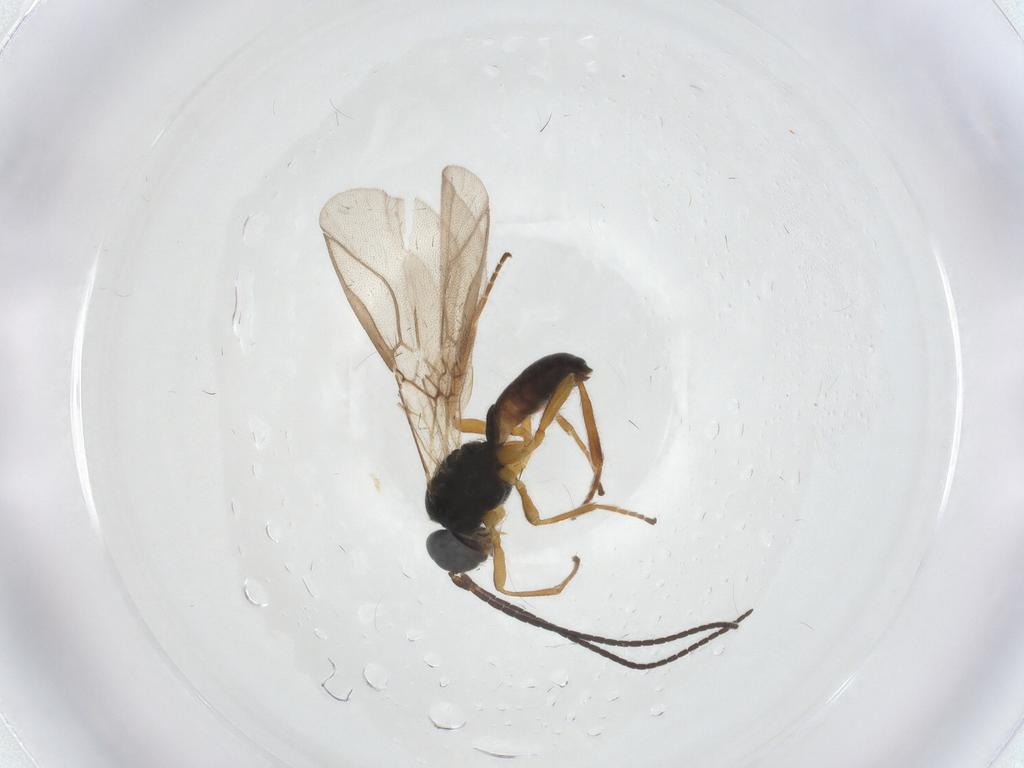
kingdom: Animalia
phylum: Arthropoda
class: Insecta
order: Hymenoptera
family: Braconidae
